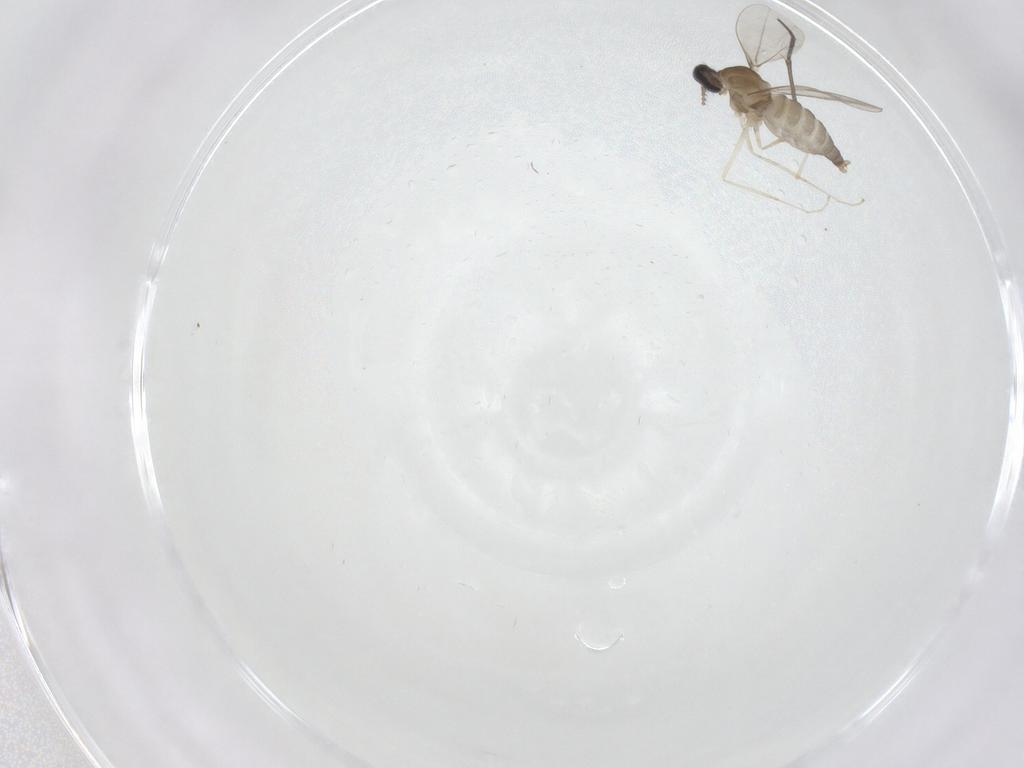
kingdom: Animalia
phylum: Arthropoda
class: Insecta
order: Diptera
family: Cecidomyiidae
